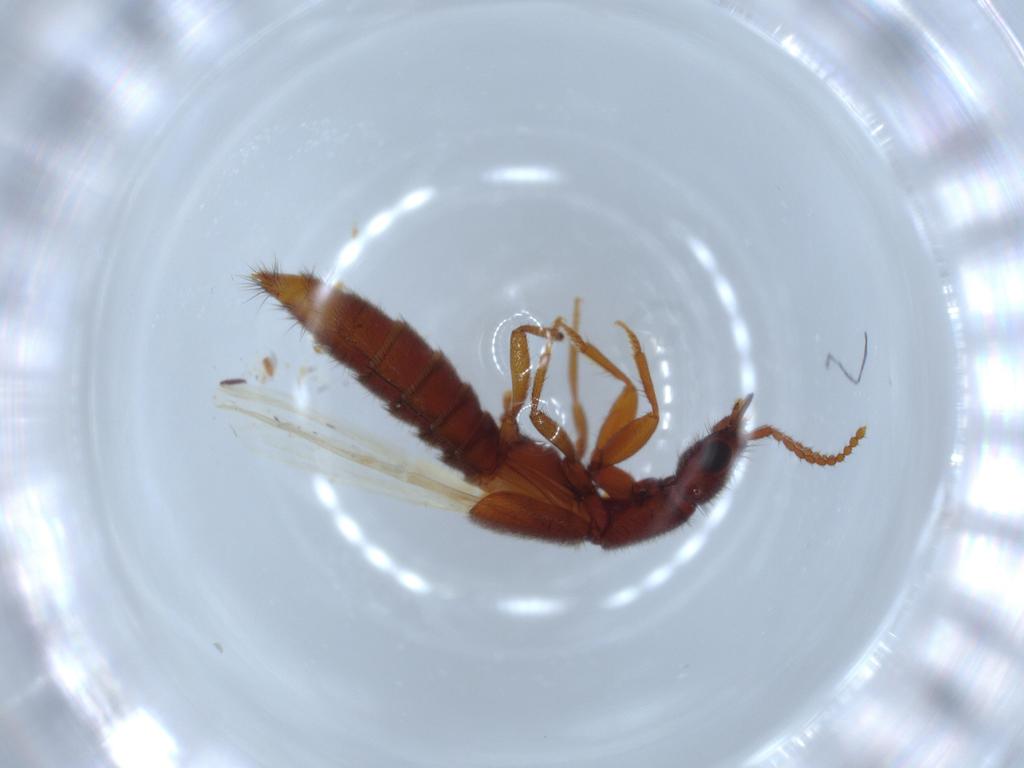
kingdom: Animalia
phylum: Arthropoda
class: Insecta
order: Coleoptera
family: Staphylinidae
